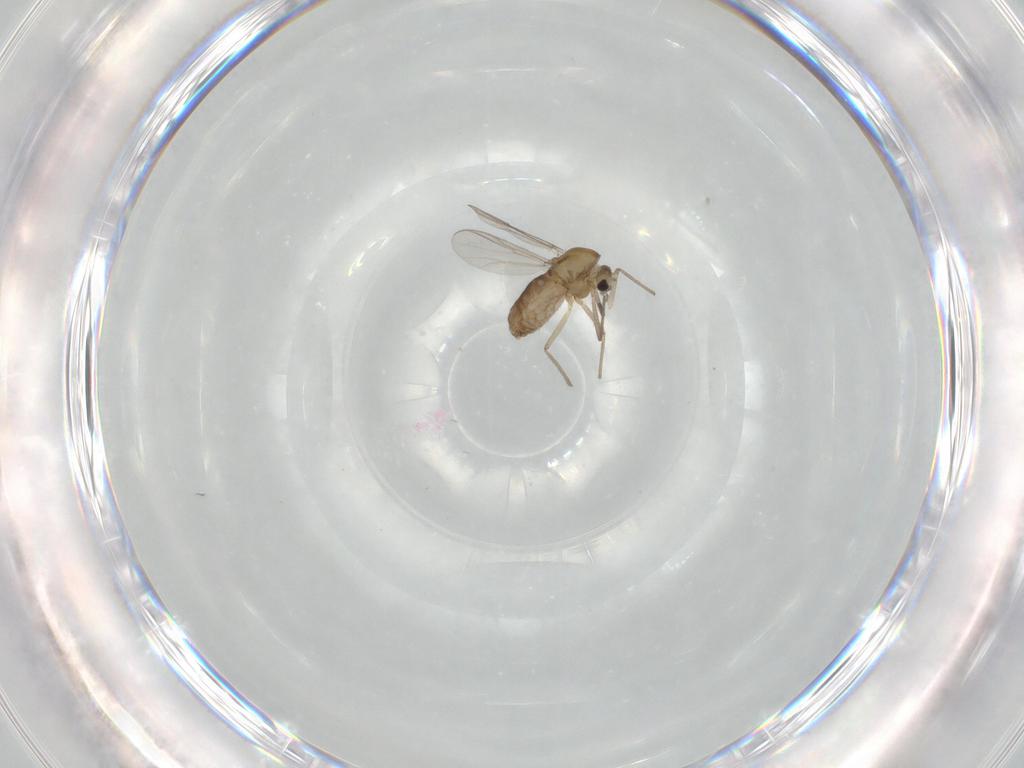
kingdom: Animalia
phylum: Arthropoda
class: Insecta
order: Diptera
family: Chironomidae
